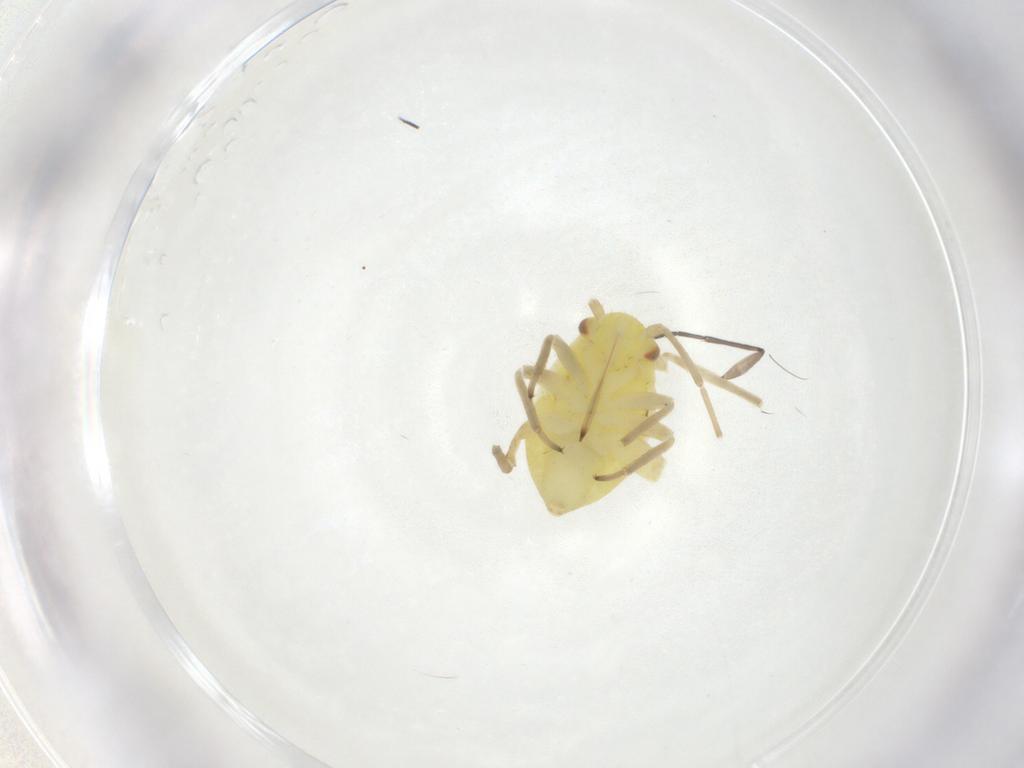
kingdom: Animalia
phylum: Arthropoda
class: Insecta
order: Hemiptera
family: Miridae
